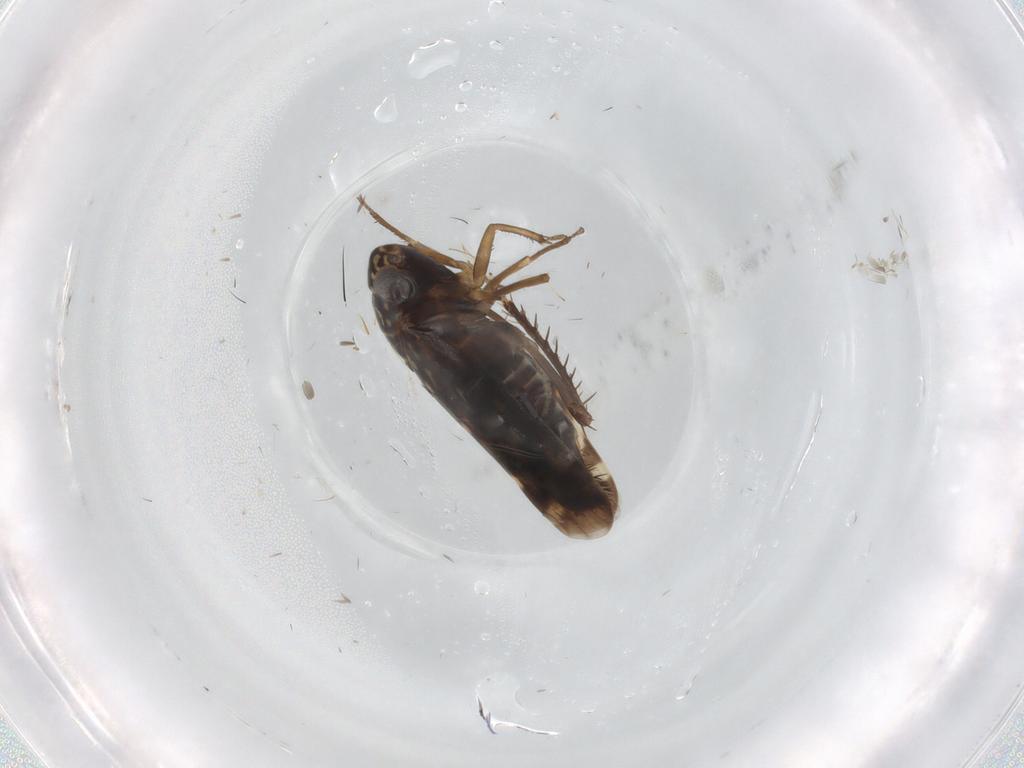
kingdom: Animalia
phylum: Arthropoda
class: Insecta
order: Hemiptera
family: Cicadellidae
